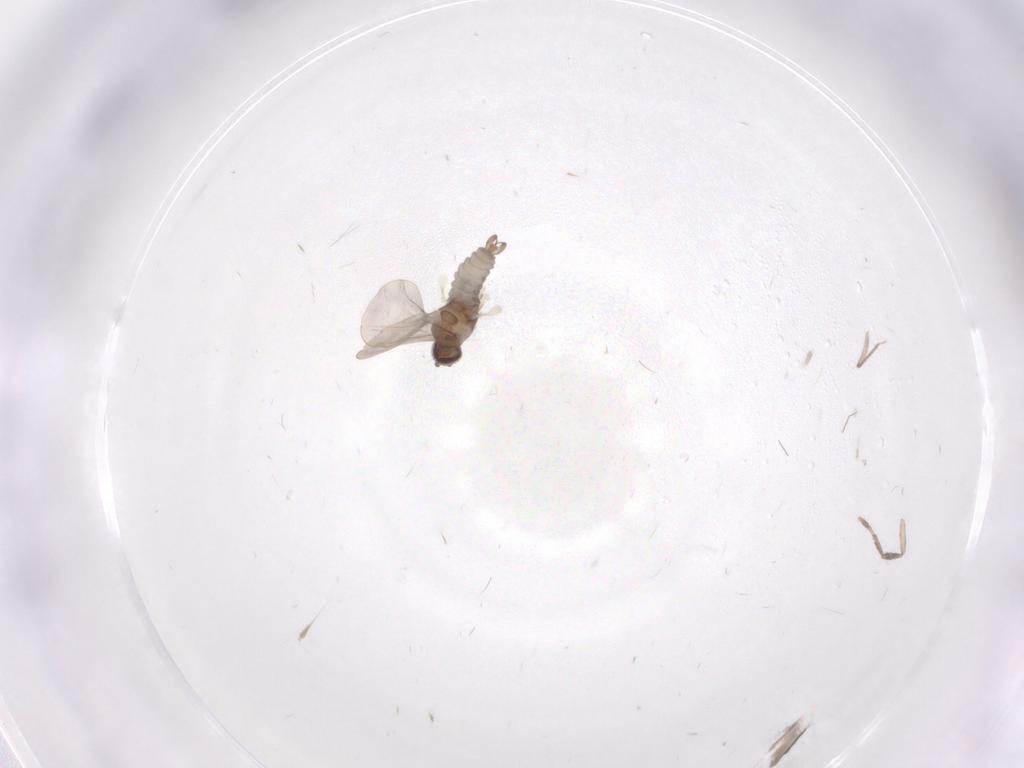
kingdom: Animalia
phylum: Arthropoda
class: Insecta
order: Diptera
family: Cecidomyiidae
